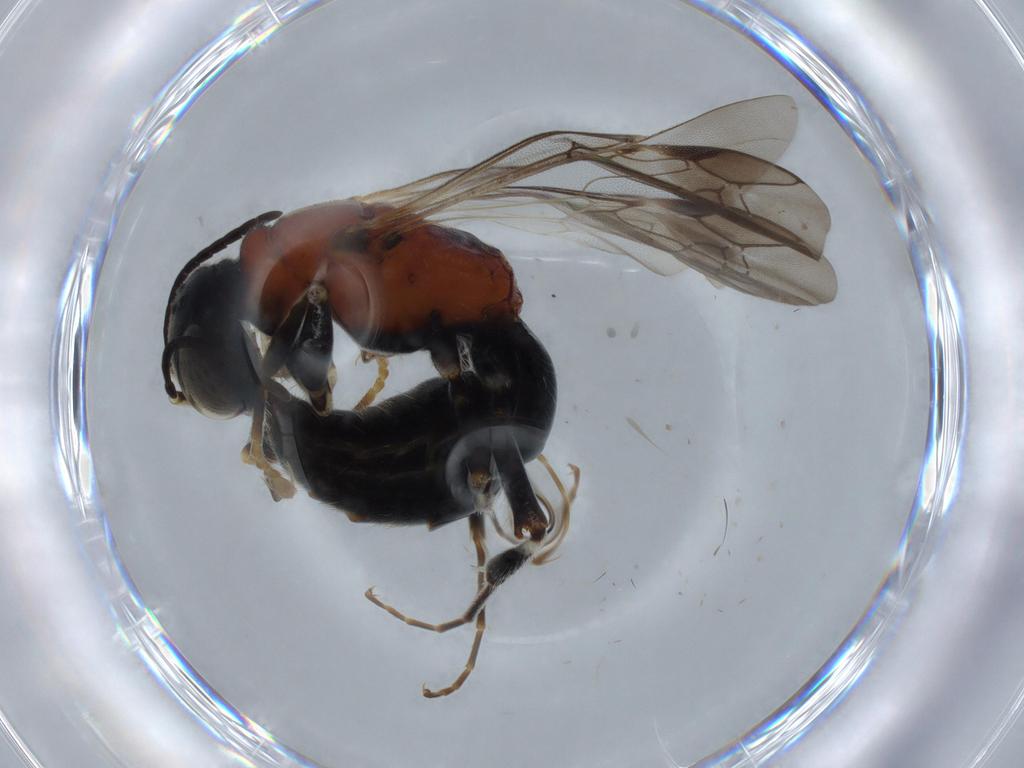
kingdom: Animalia
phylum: Arthropoda
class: Insecta
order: Hymenoptera
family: Bembicidae
